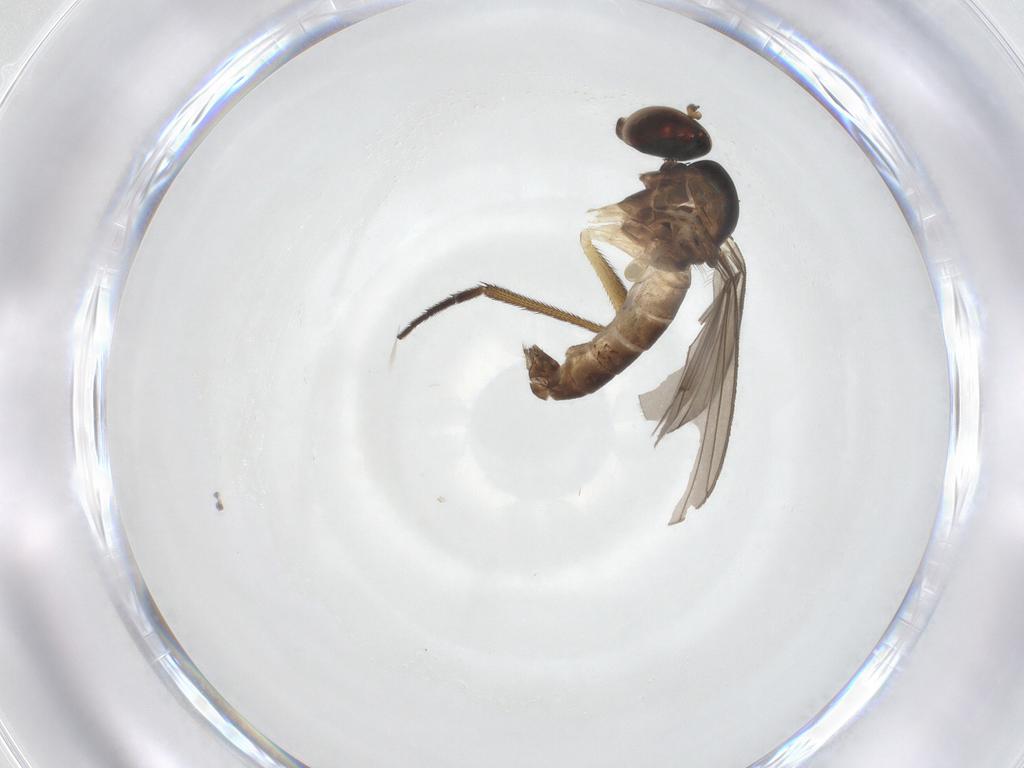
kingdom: Animalia
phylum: Arthropoda
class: Insecta
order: Diptera
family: Dolichopodidae
